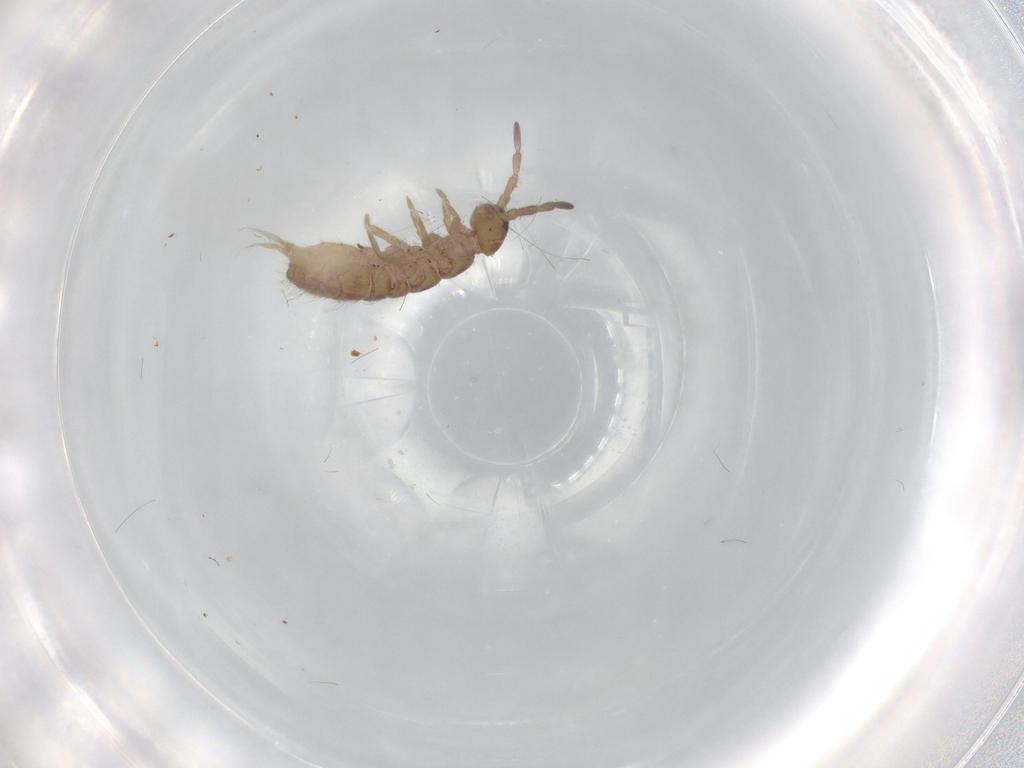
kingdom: Animalia
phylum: Arthropoda
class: Collembola
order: Entomobryomorpha
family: Isotomidae
